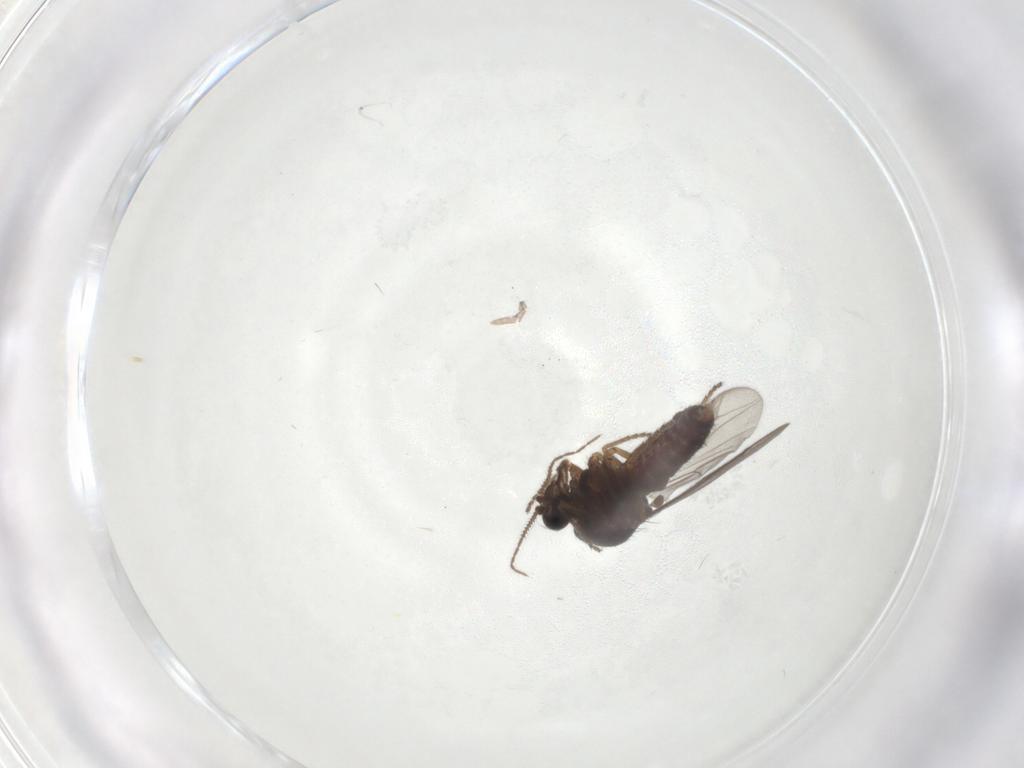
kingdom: Animalia
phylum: Arthropoda
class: Insecta
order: Diptera
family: Ceratopogonidae
